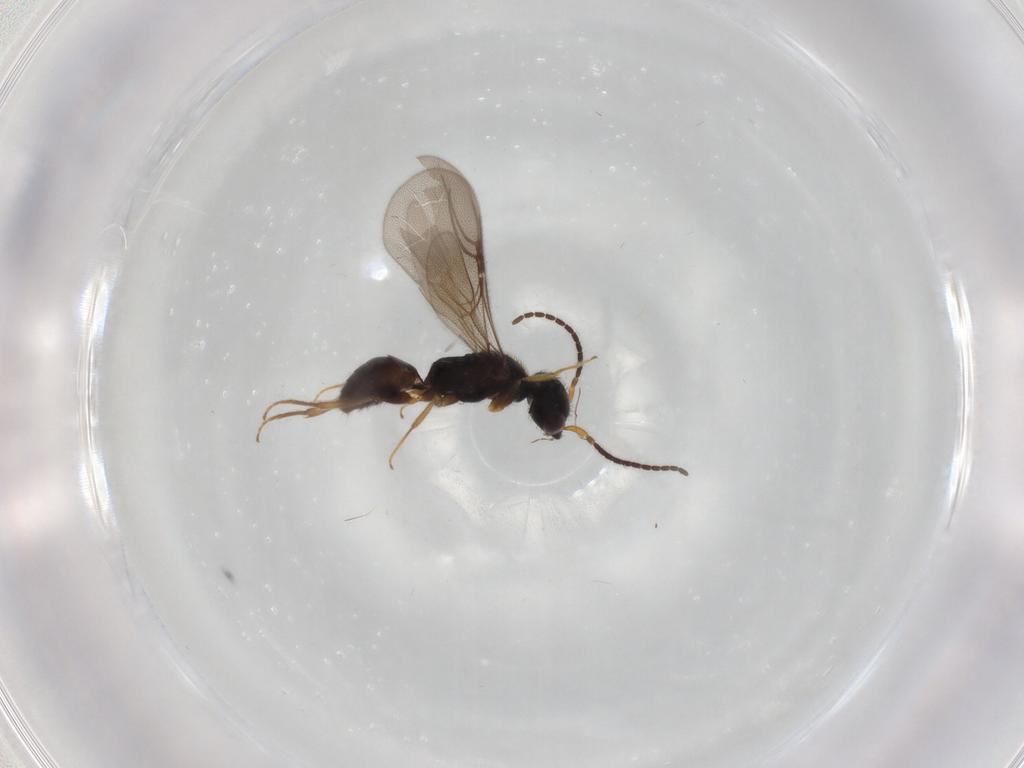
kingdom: Animalia
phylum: Arthropoda
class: Insecta
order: Hymenoptera
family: Bethylidae
